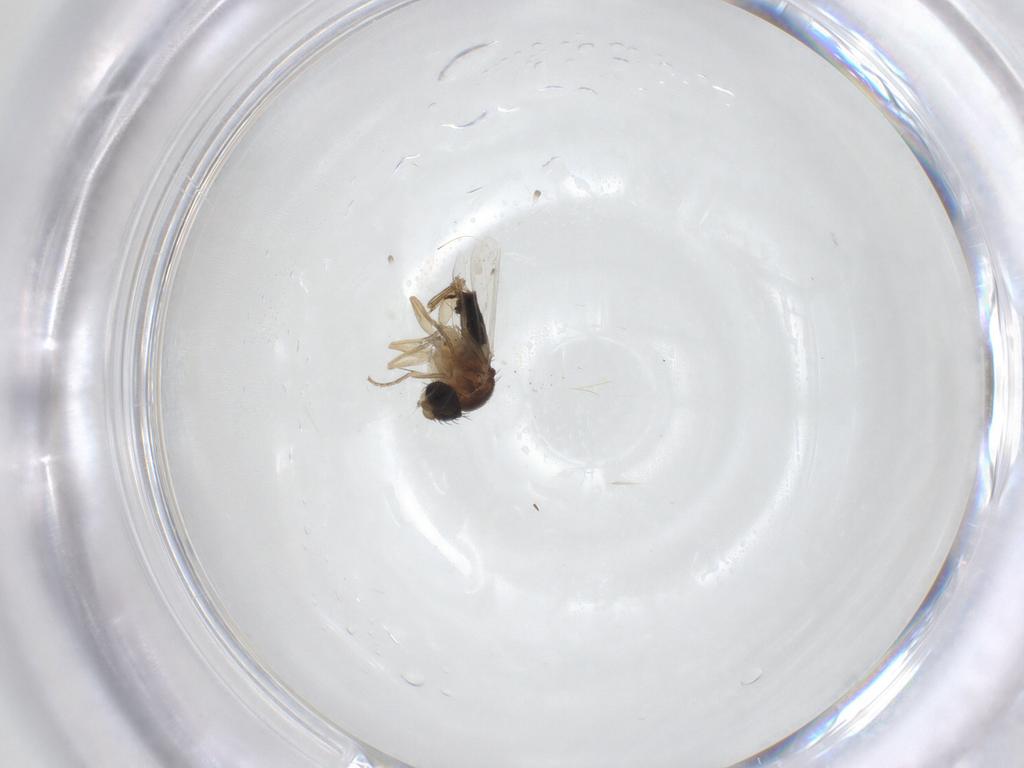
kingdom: Animalia
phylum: Arthropoda
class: Insecta
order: Diptera
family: Phoridae
